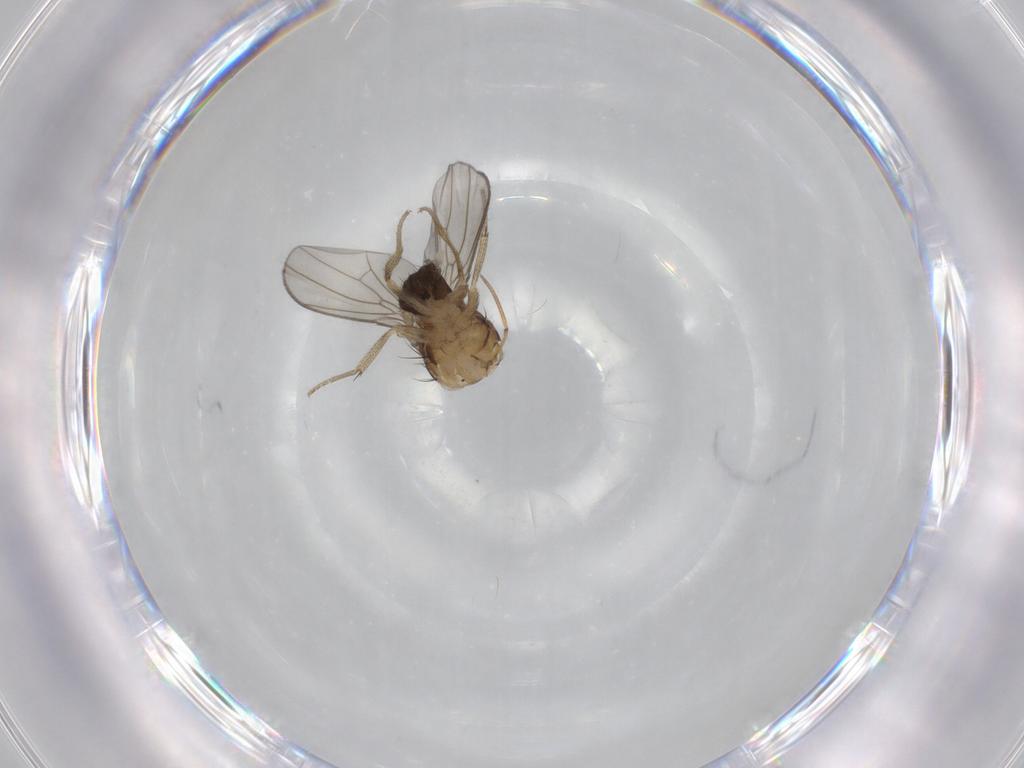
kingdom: Animalia
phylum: Arthropoda
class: Insecta
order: Diptera
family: Drosophilidae
